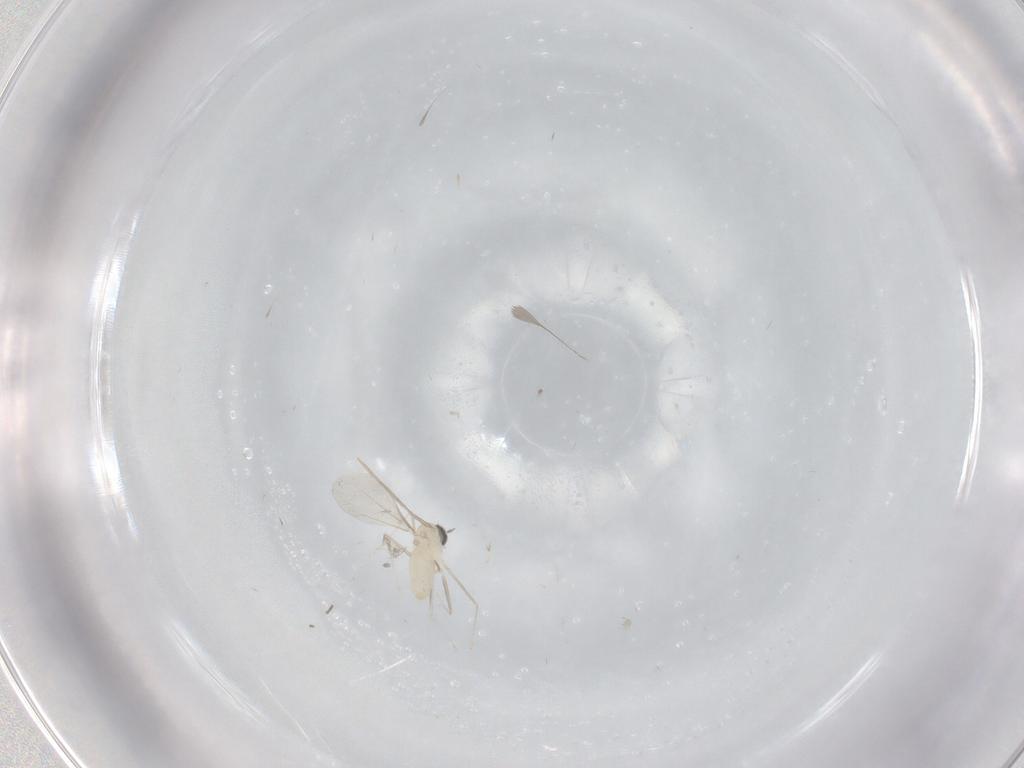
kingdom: Animalia
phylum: Arthropoda
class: Insecta
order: Diptera
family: Cecidomyiidae
